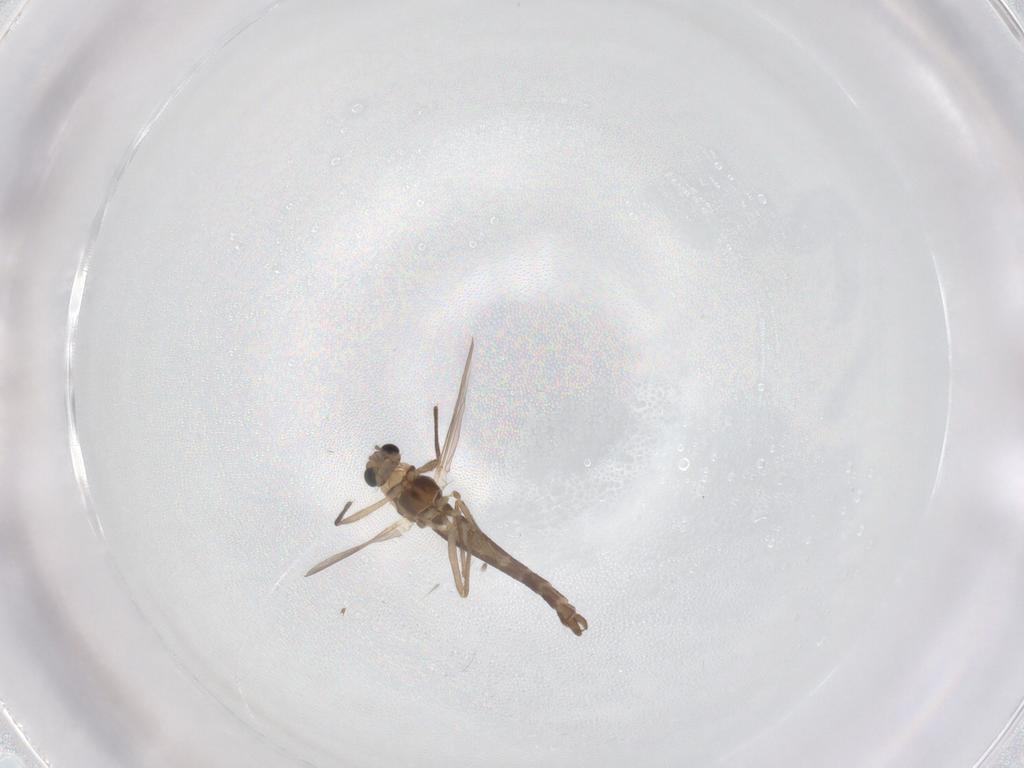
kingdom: Animalia
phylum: Arthropoda
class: Insecta
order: Diptera
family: Chironomidae
